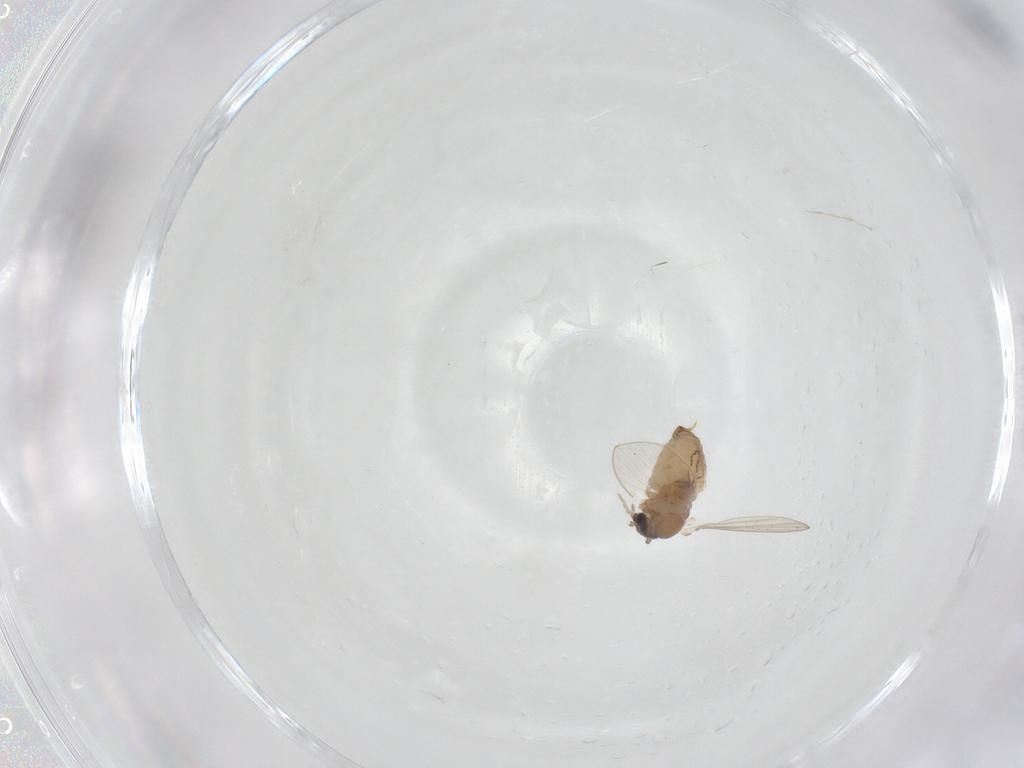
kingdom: Animalia
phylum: Arthropoda
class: Insecta
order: Diptera
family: Psychodidae
